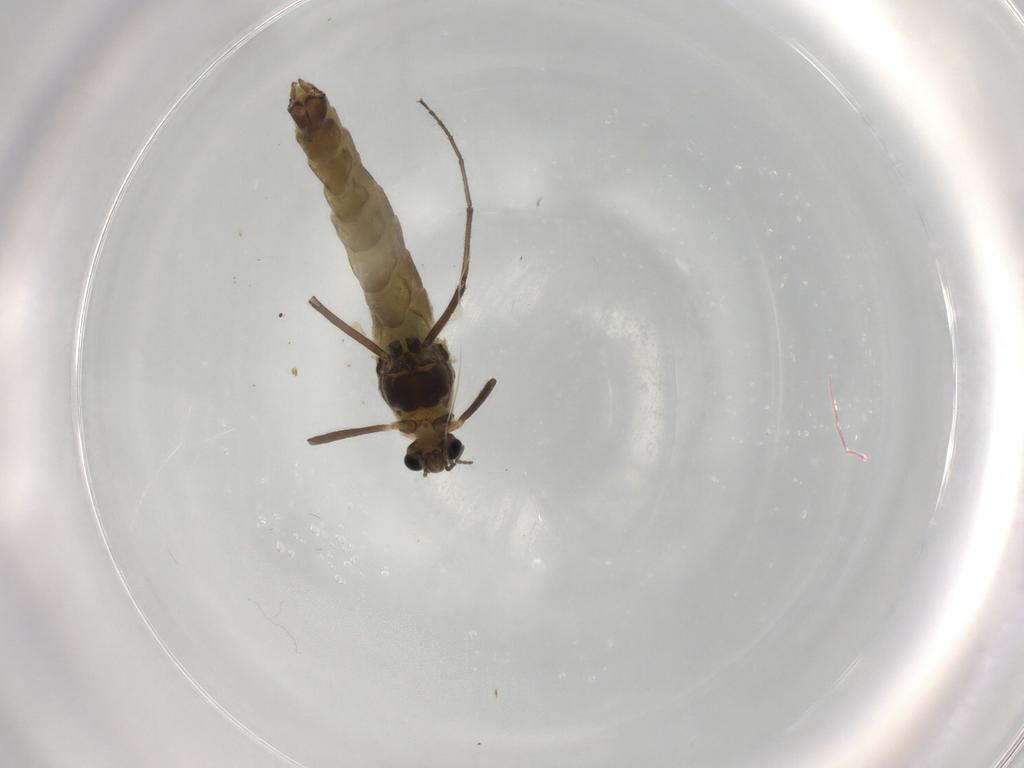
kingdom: Animalia
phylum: Arthropoda
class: Insecta
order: Diptera
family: Chironomidae
